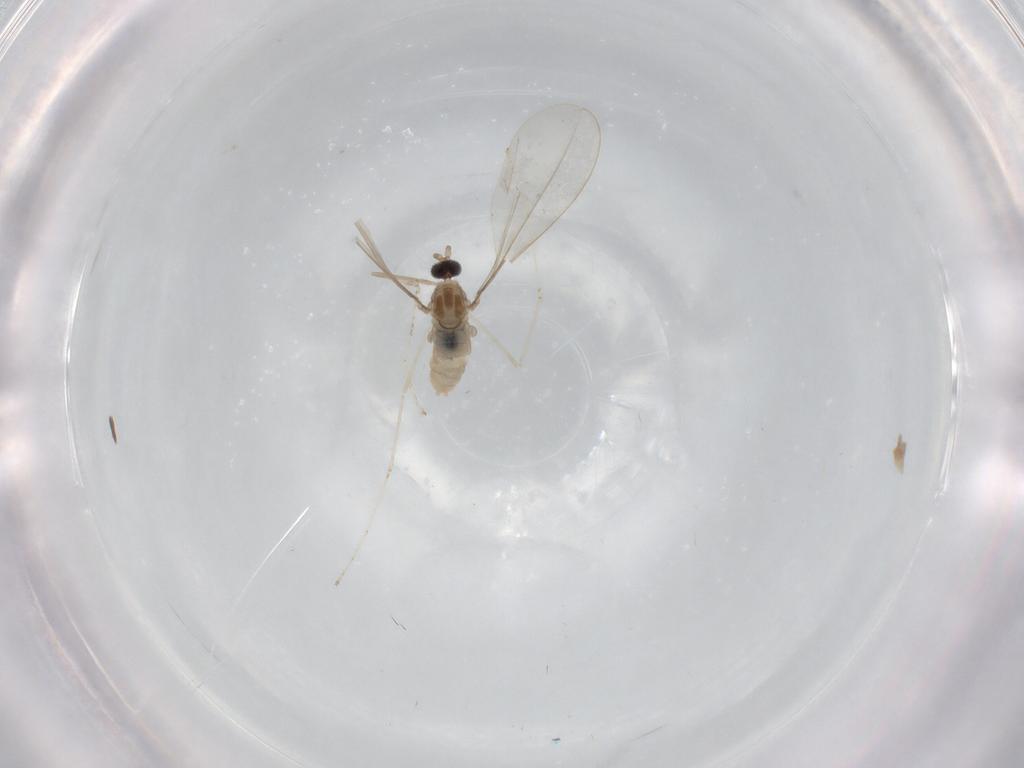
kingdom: Animalia
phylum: Arthropoda
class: Insecta
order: Diptera
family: Cecidomyiidae
